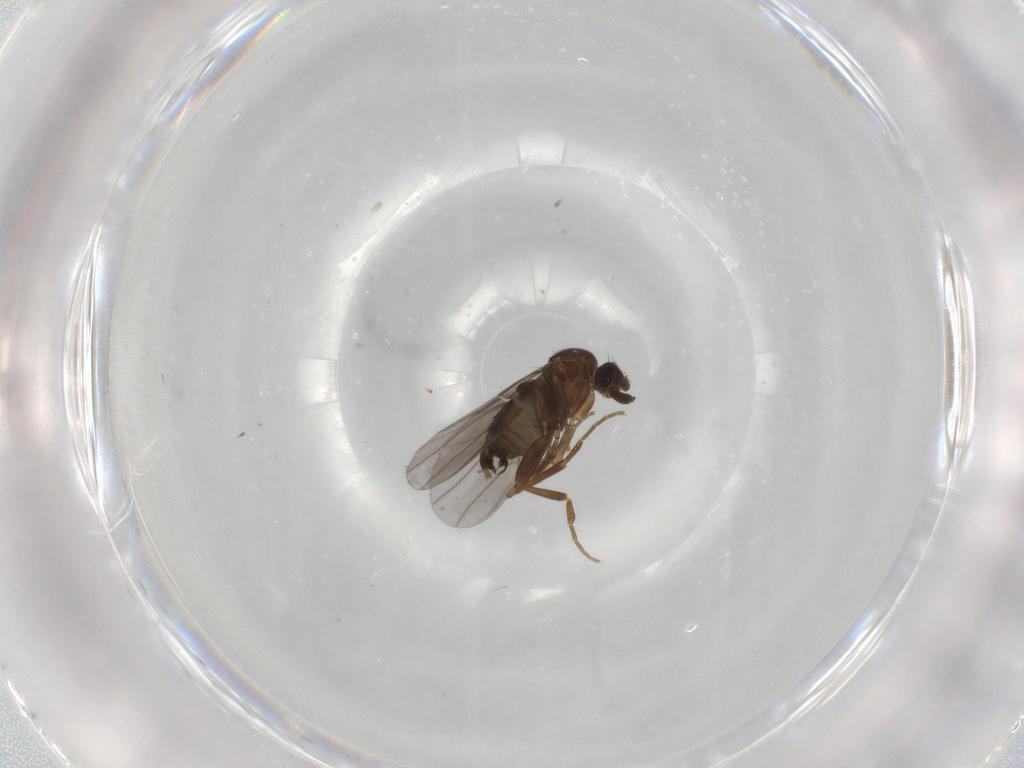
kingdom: Animalia
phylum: Arthropoda
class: Insecta
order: Diptera
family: Phoridae
